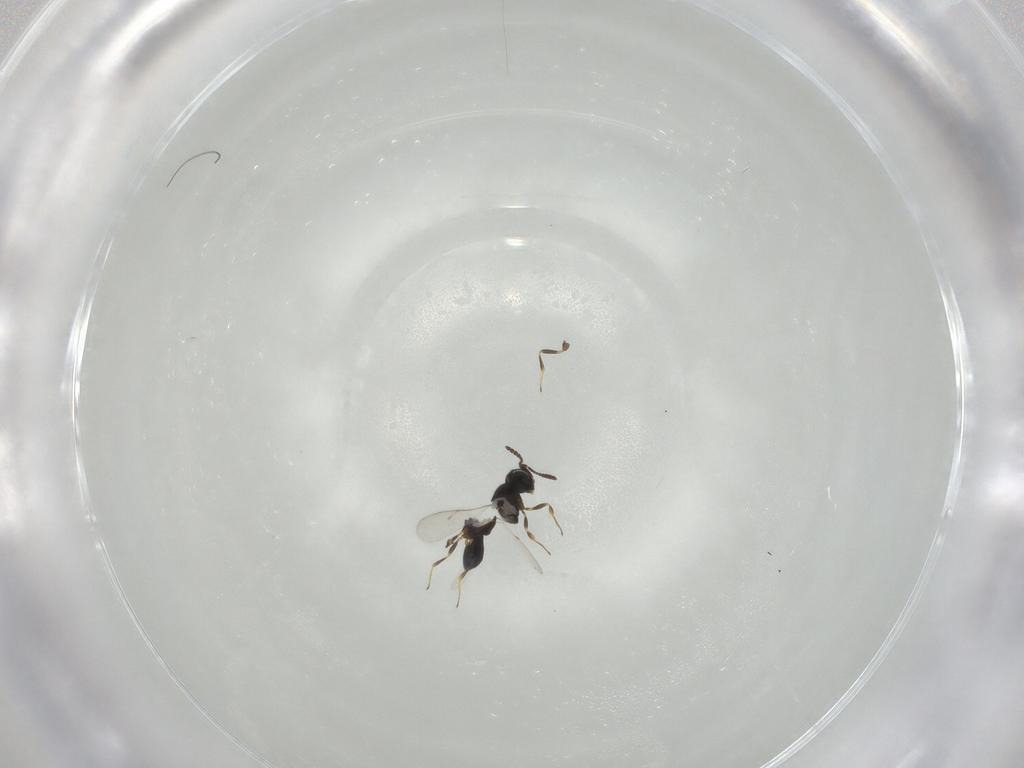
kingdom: Animalia
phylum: Arthropoda
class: Insecta
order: Hymenoptera
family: Scelionidae
